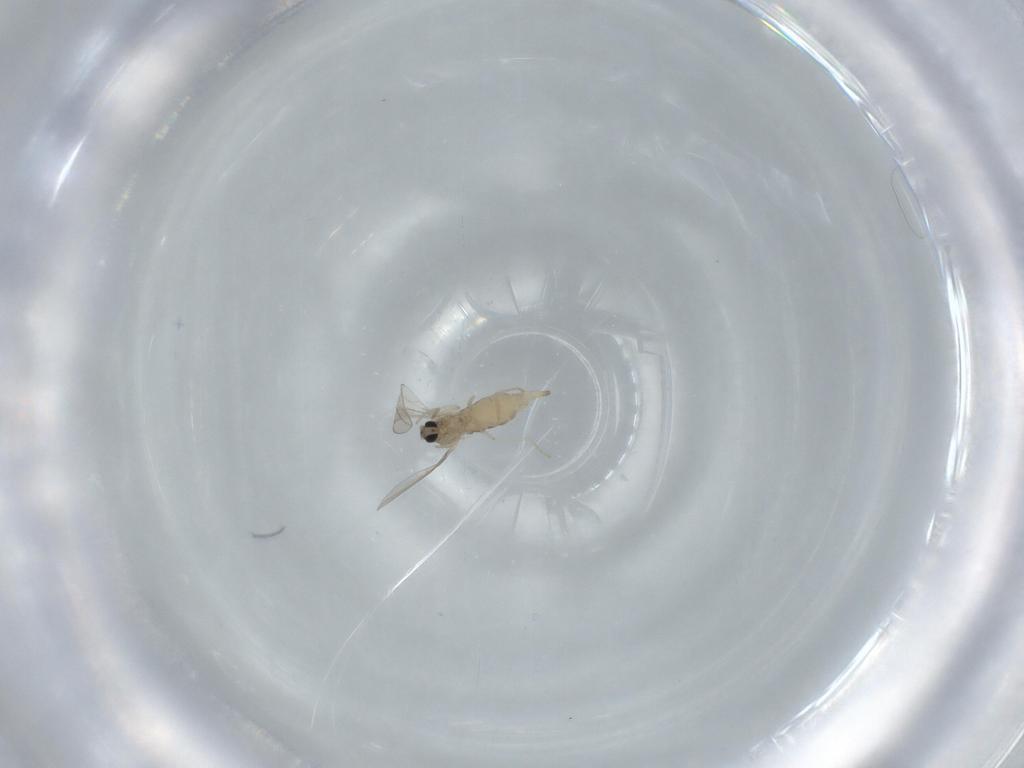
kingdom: Animalia
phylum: Arthropoda
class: Insecta
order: Diptera
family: Cecidomyiidae
